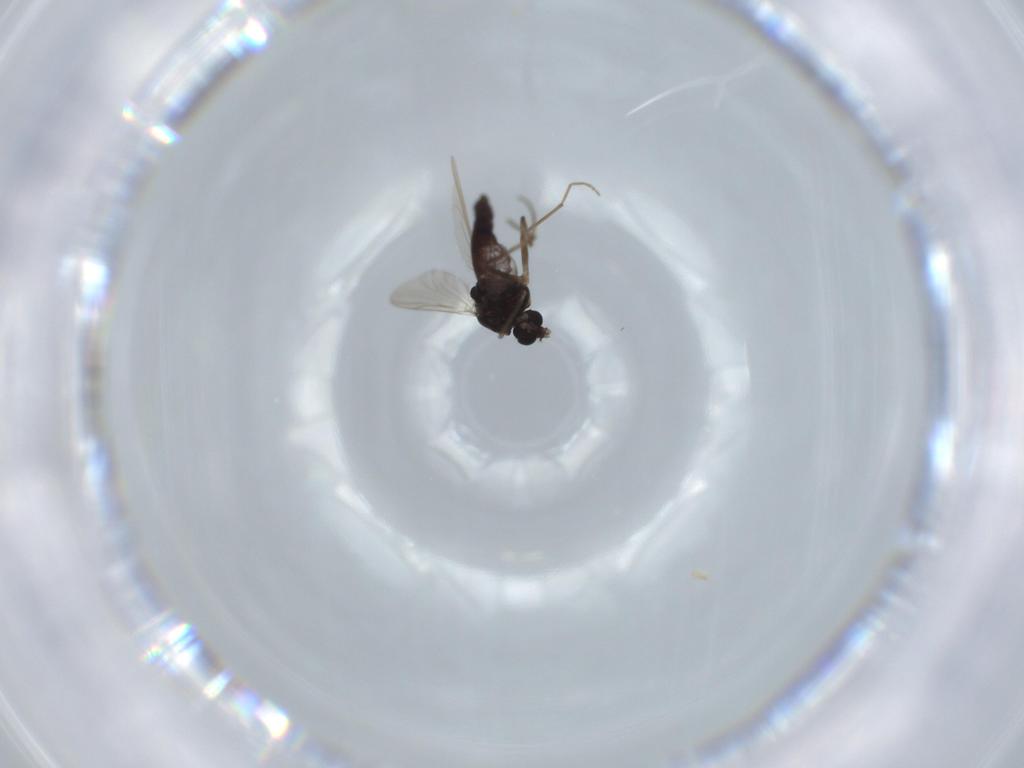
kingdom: Animalia
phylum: Arthropoda
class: Insecta
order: Diptera
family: Chironomidae
